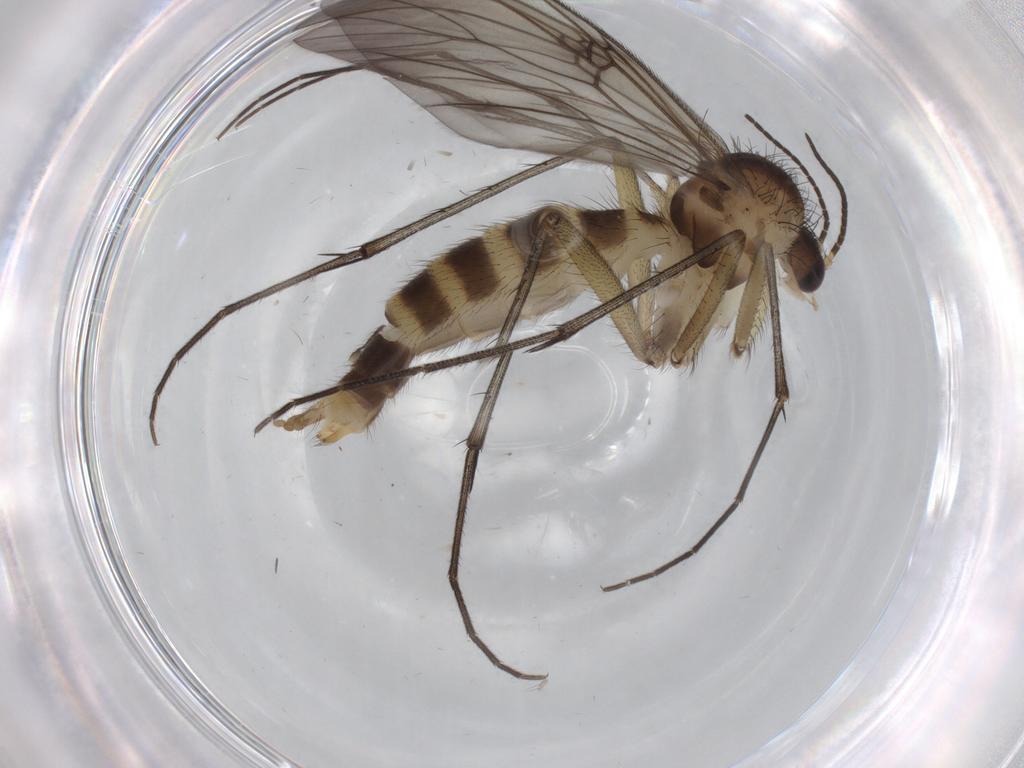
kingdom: Animalia
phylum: Arthropoda
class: Insecta
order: Diptera
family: Mycetophilidae
